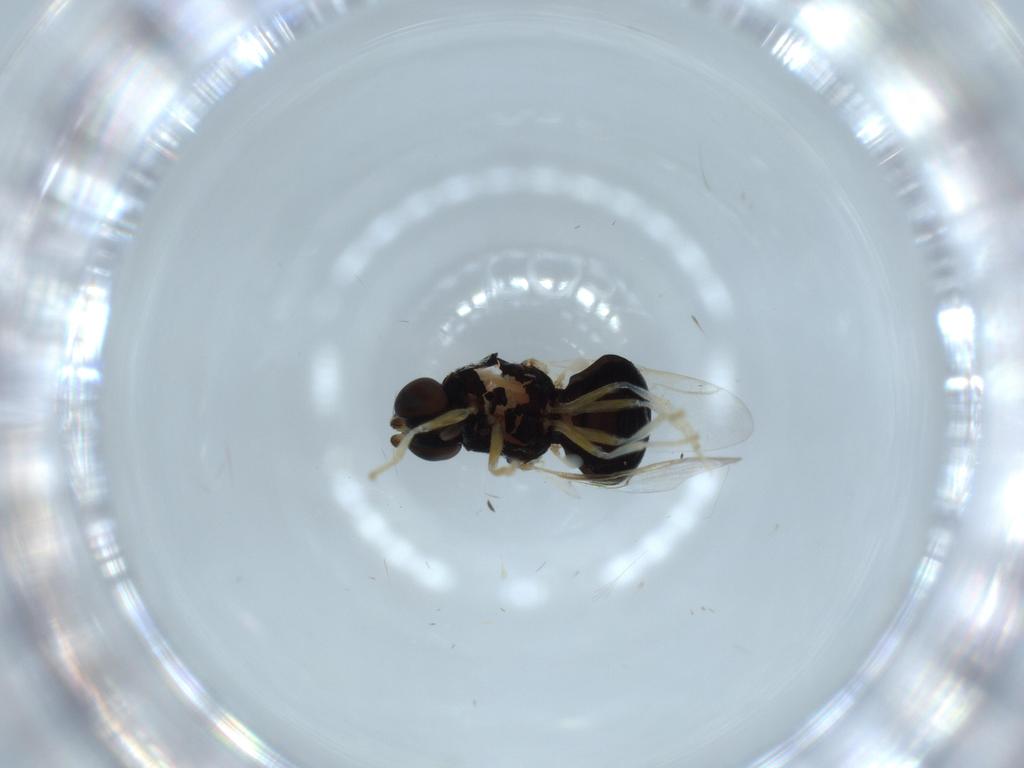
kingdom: Animalia
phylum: Arthropoda
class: Insecta
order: Diptera
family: Stratiomyidae
